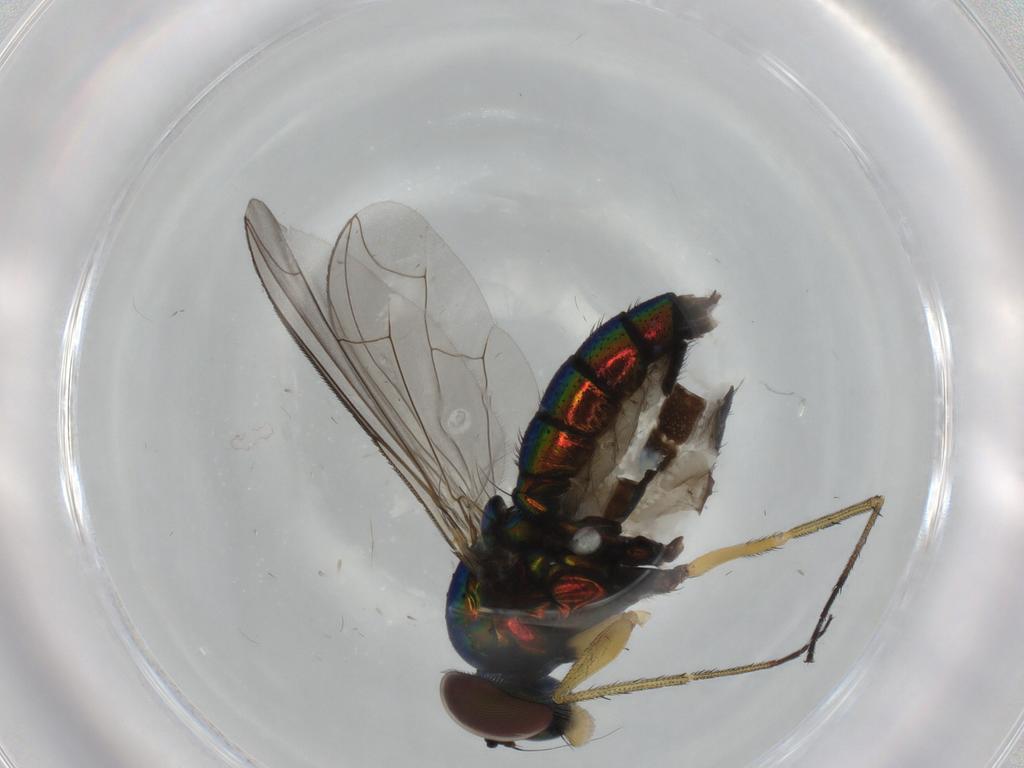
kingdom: Animalia
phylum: Arthropoda
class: Insecta
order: Diptera
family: Dolichopodidae
